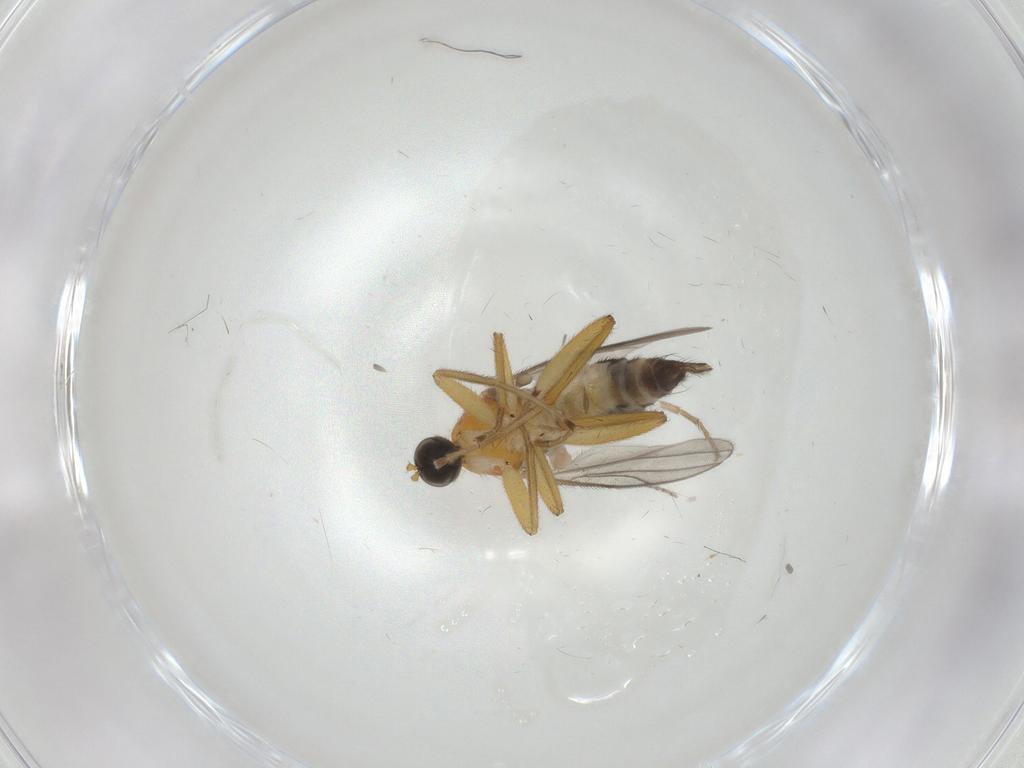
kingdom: Animalia
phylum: Arthropoda
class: Insecta
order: Diptera
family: Hybotidae
